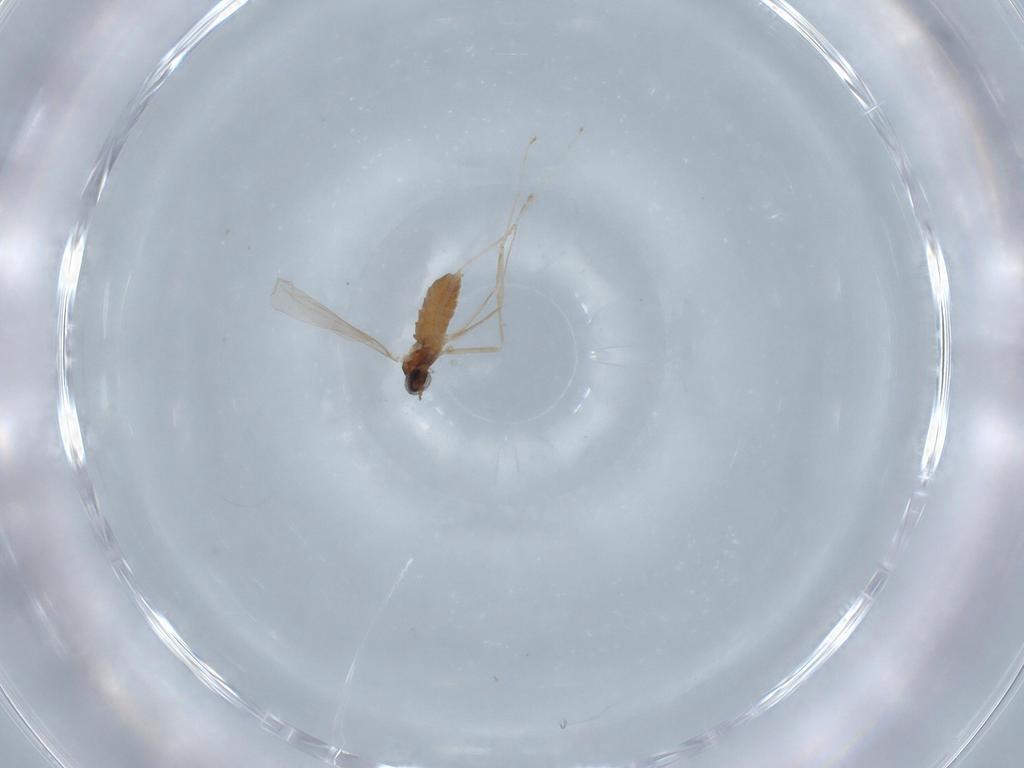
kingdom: Animalia
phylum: Arthropoda
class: Insecta
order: Diptera
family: Cecidomyiidae
